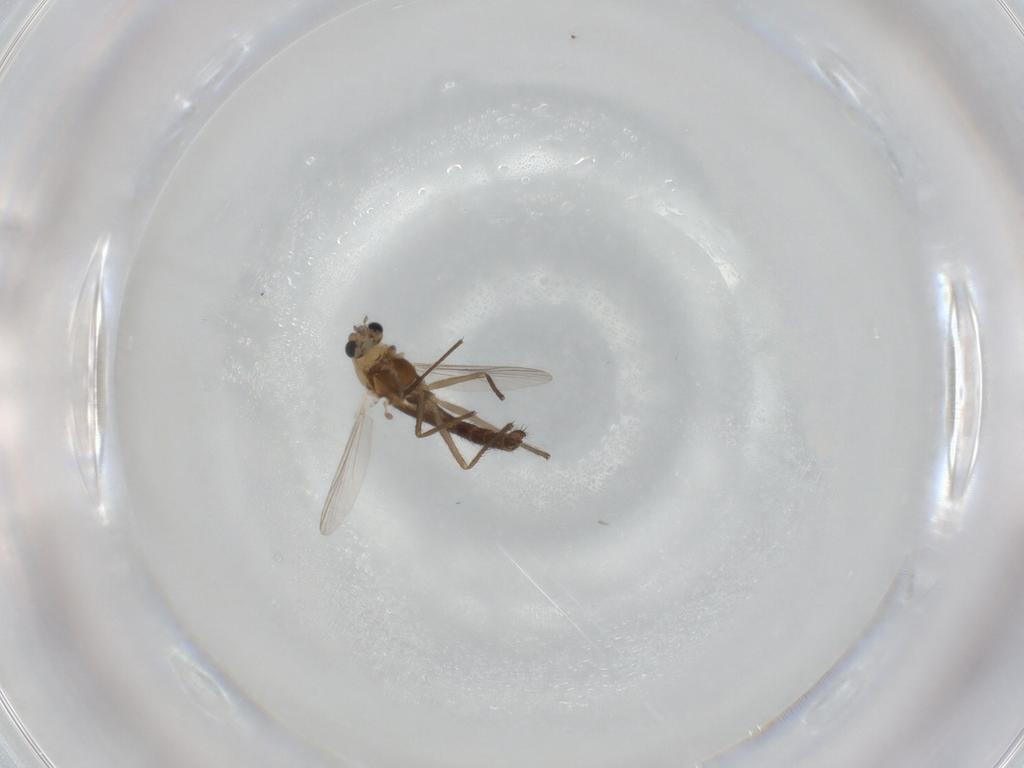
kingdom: Animalia
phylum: Arthropoda
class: Insecta
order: Diptera
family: Chironomidae
